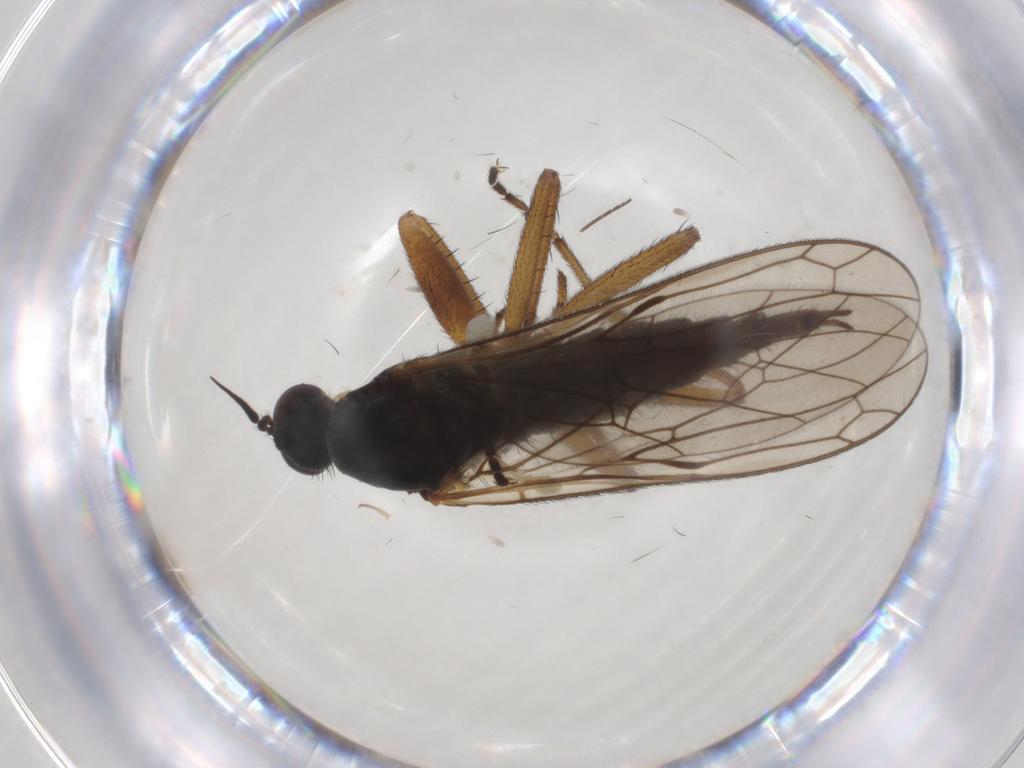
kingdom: Animalia
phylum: Arthropoda
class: Insecta
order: Diptera
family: Empididae
